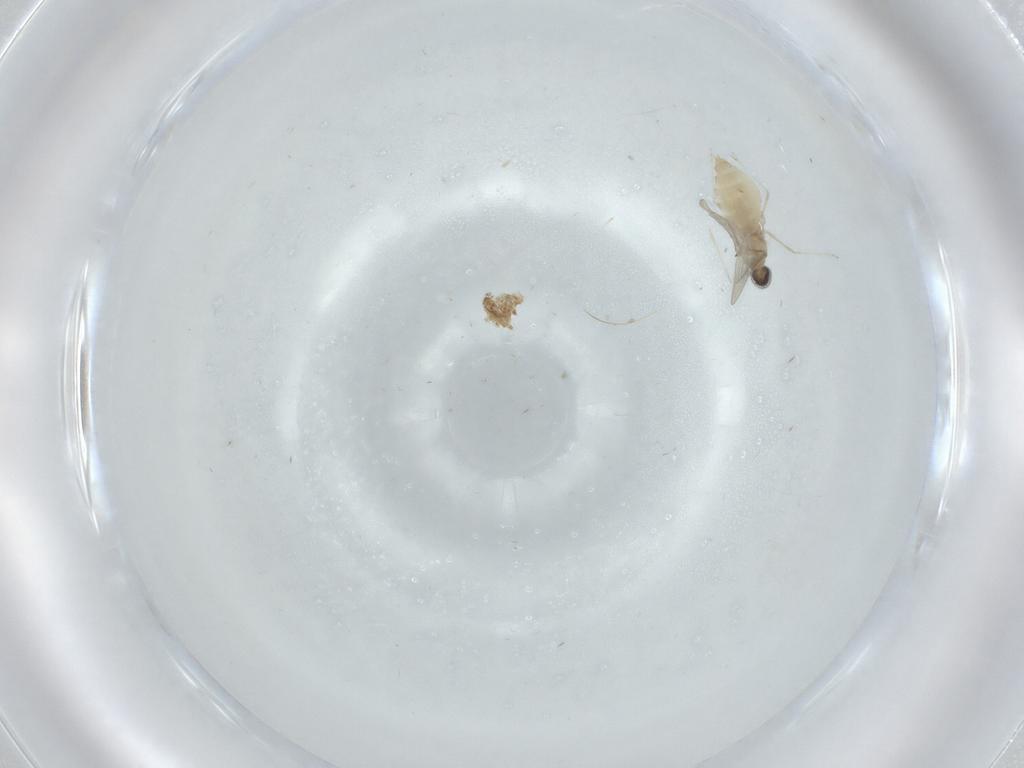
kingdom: Animalia
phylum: Arthropoda
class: Insecta
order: Diptera
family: Cecidomyiidae
